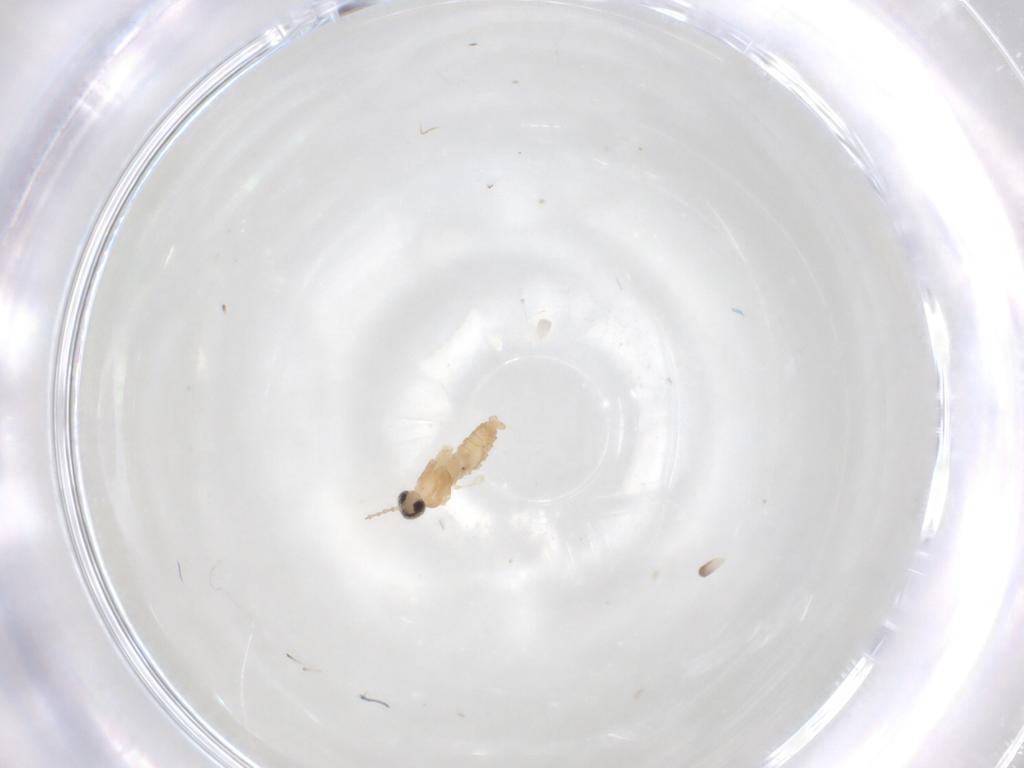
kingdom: Animalia
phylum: Arthropoda
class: Insecta
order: Diptera
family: Cecidomyiidae
